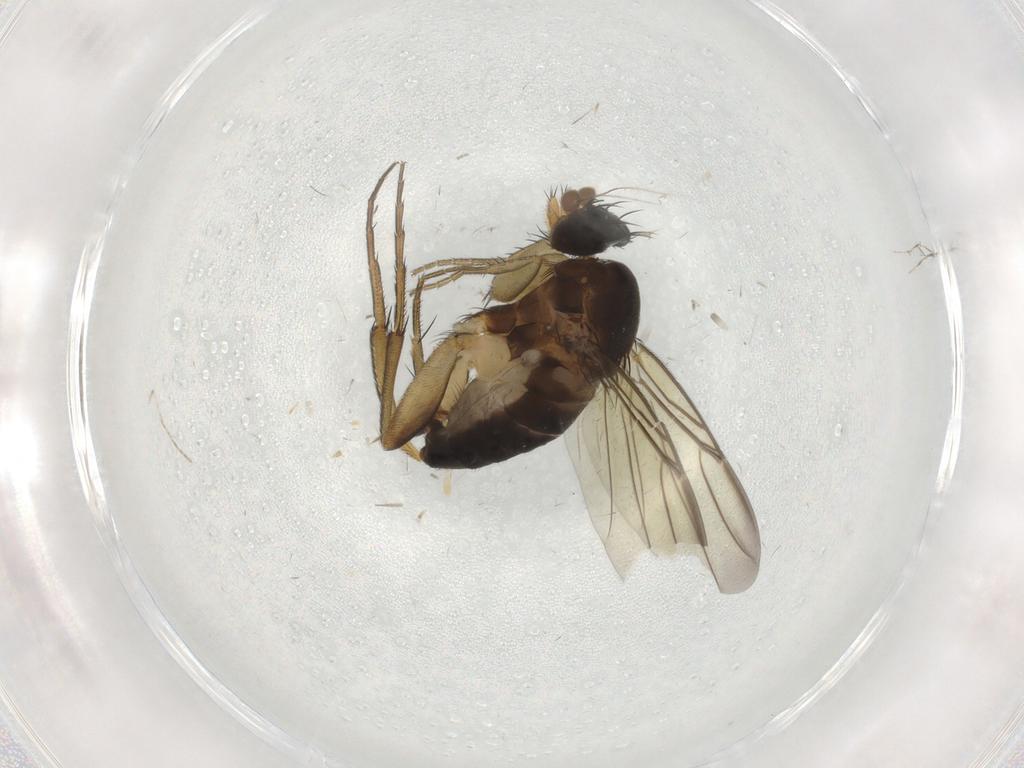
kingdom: Animalia
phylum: Arthropoda
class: Insecta
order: Diptera
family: Phoridae
